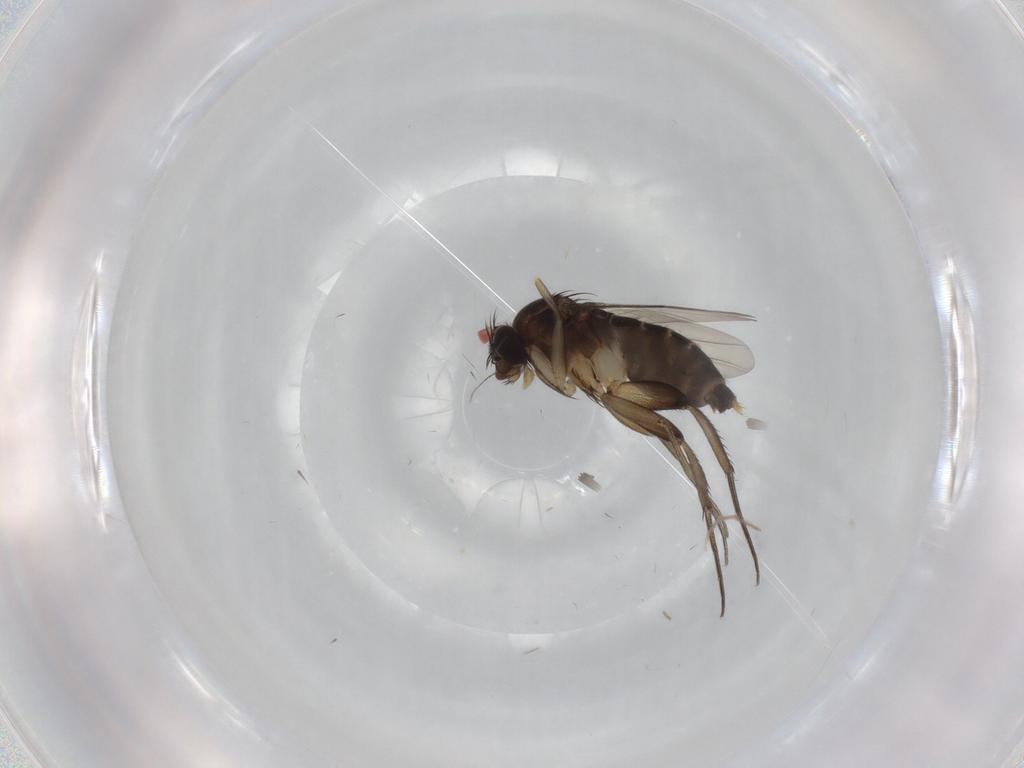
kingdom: Animalia
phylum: Arthropoda
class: Insecta
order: Diptera
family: Phoridae
